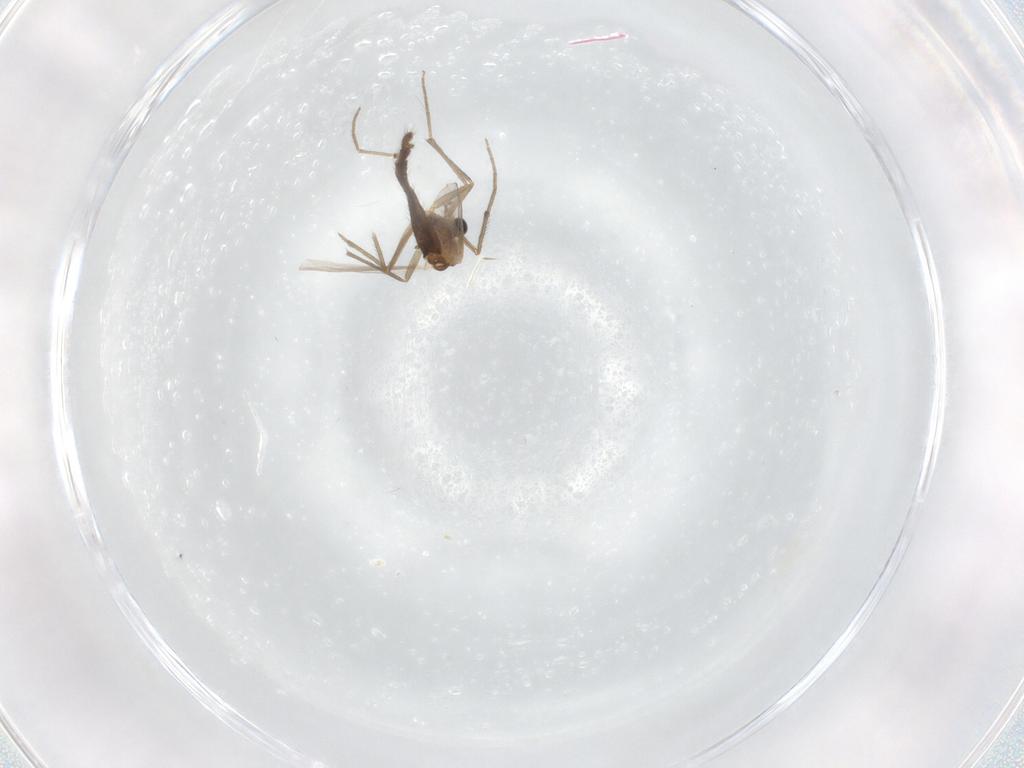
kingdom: Animalia
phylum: Arthropoda
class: Insecta
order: Diptera
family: Chironomidae
